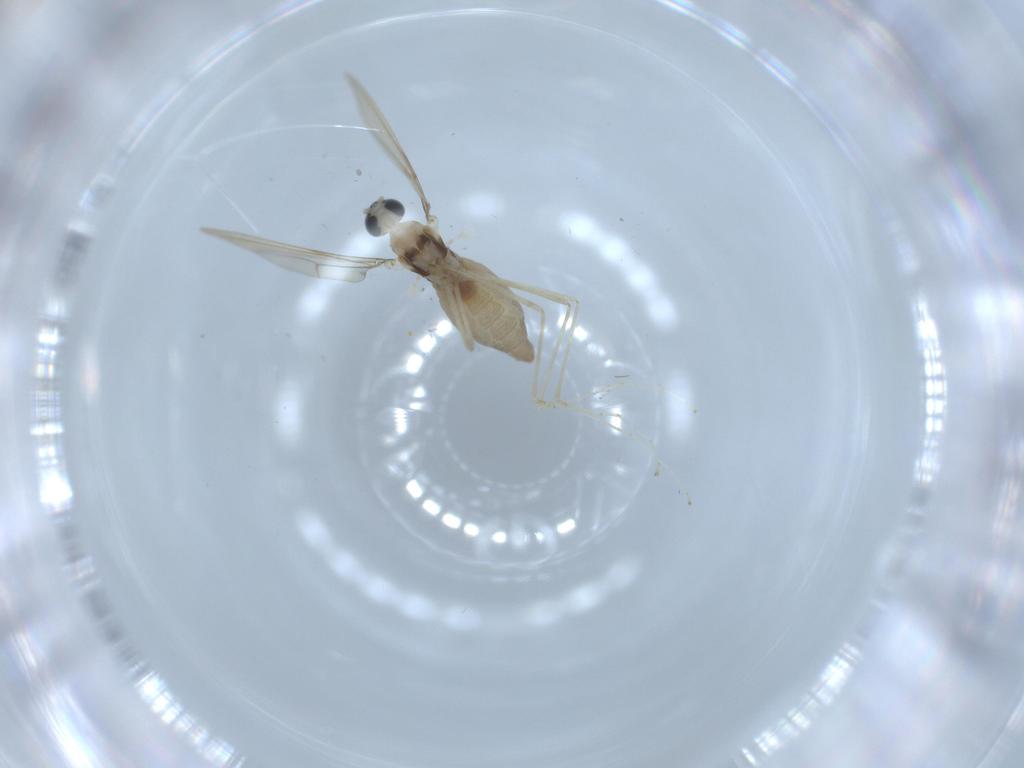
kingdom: Animalia
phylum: Arthropoda
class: Insecta
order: Diptera
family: Cecidomyiidae
